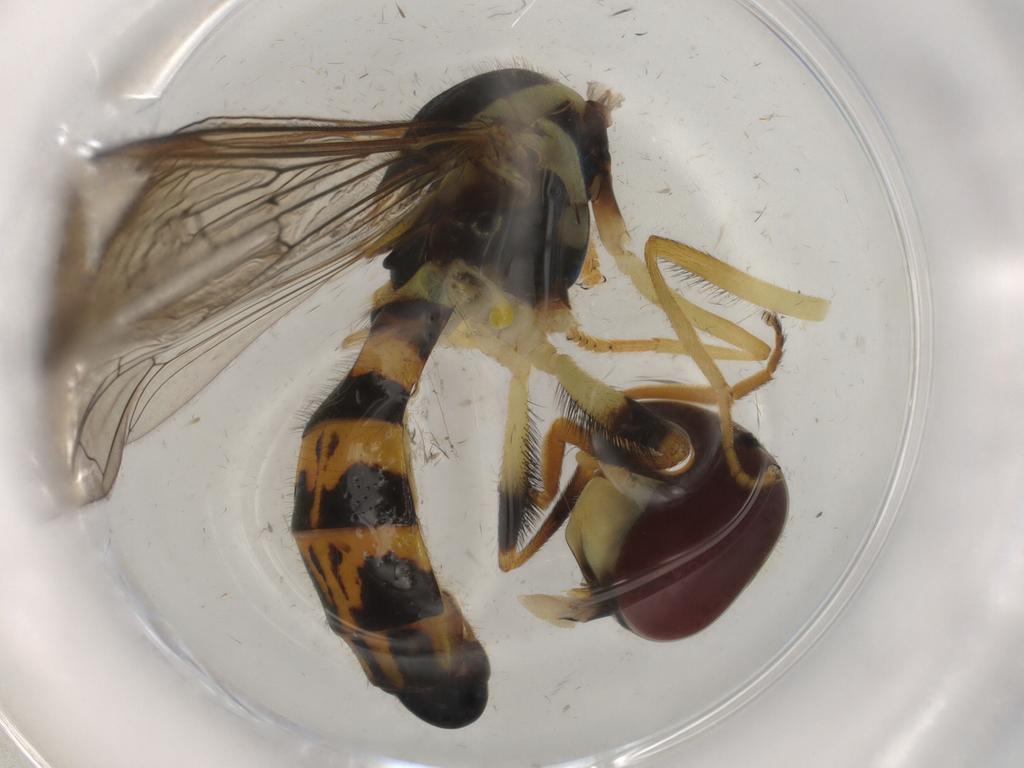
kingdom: Animalia
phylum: Arthropoda
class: Insecta
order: Diptera
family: Syrphidae
